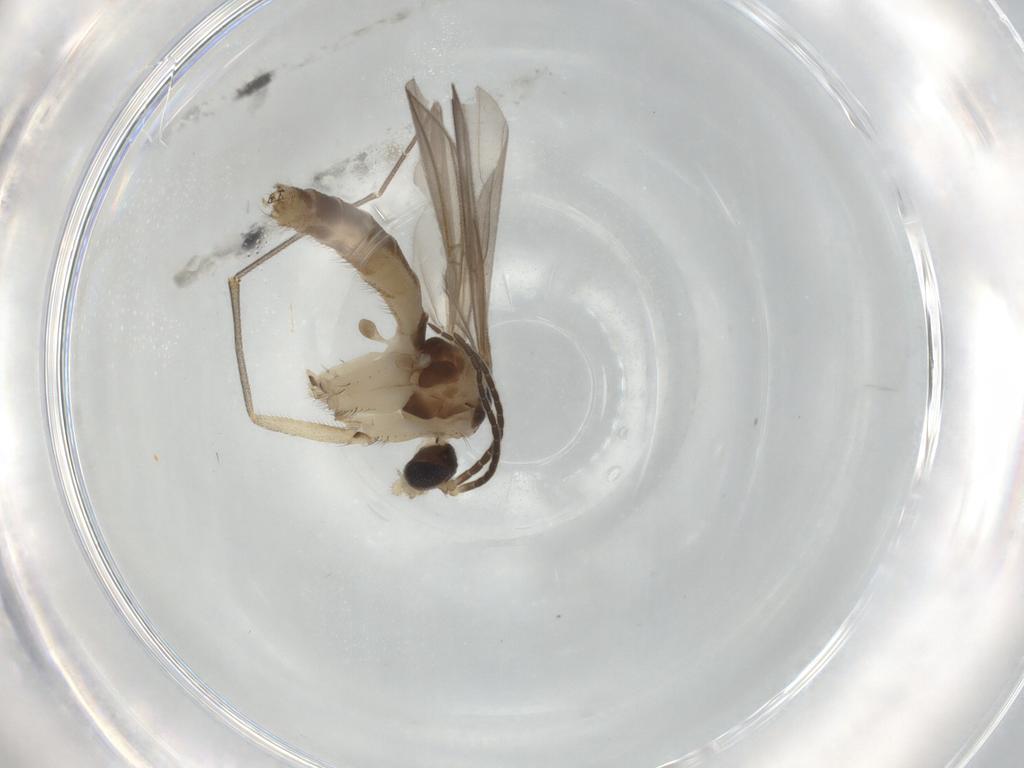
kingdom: Animalia
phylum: Arthropoda
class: Insecta
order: Diptera
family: Mycetophilidae
